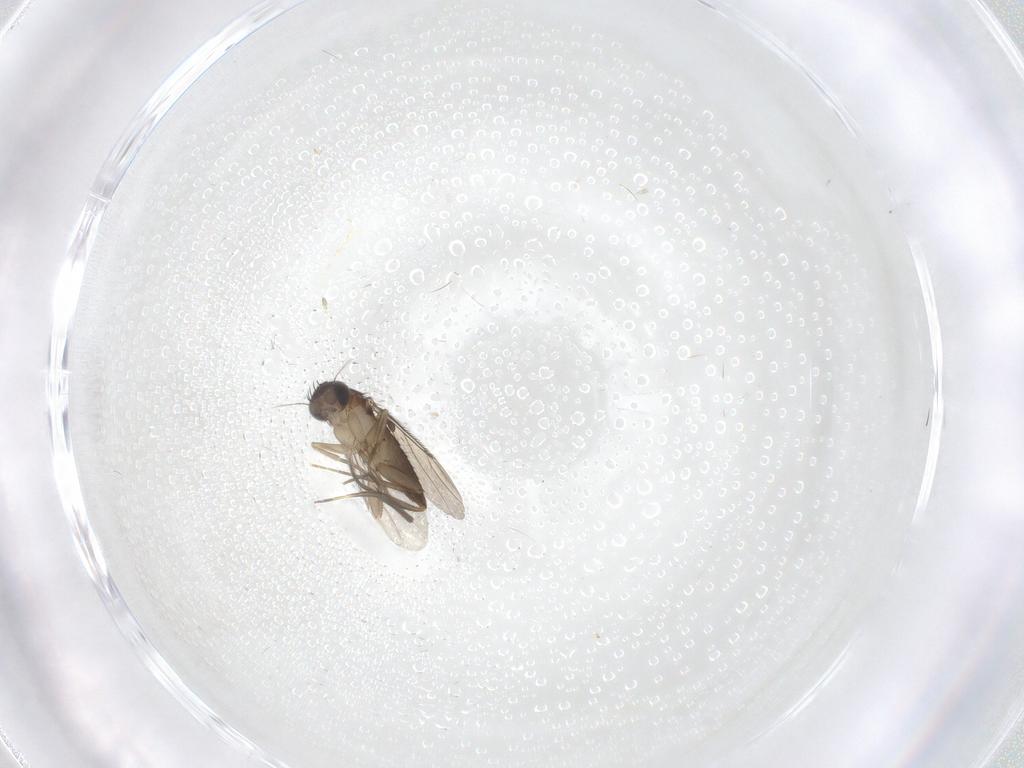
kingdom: Animalia
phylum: Arthropoda
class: Insecta
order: Diptera
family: Phoridae
